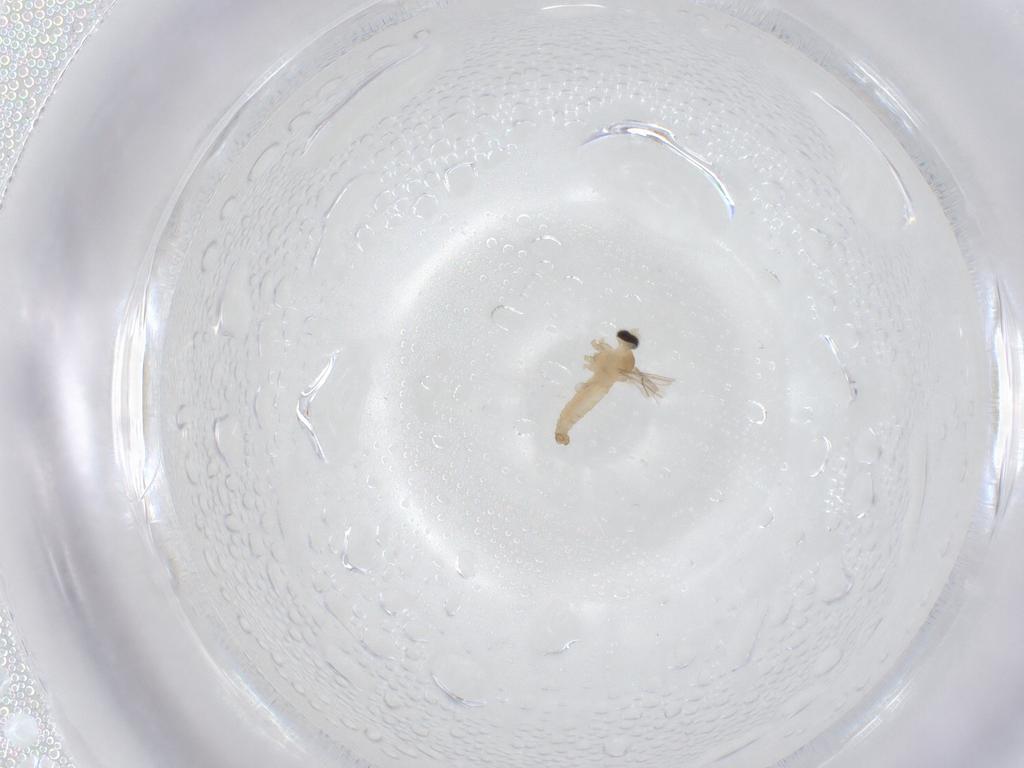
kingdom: Animalia
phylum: Arthropoda
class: Insecta
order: Diptera
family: Cecidomyiidae
